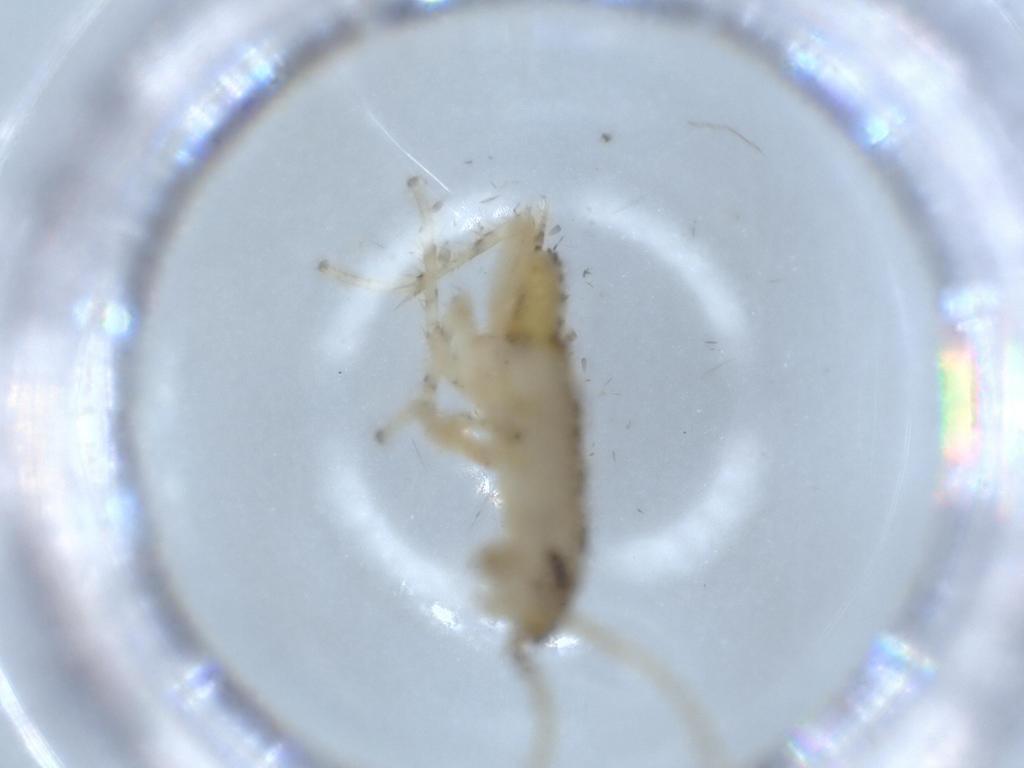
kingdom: Animalia
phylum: Arthropoda
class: Insecta
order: Blattodea
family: Ectobiidae
